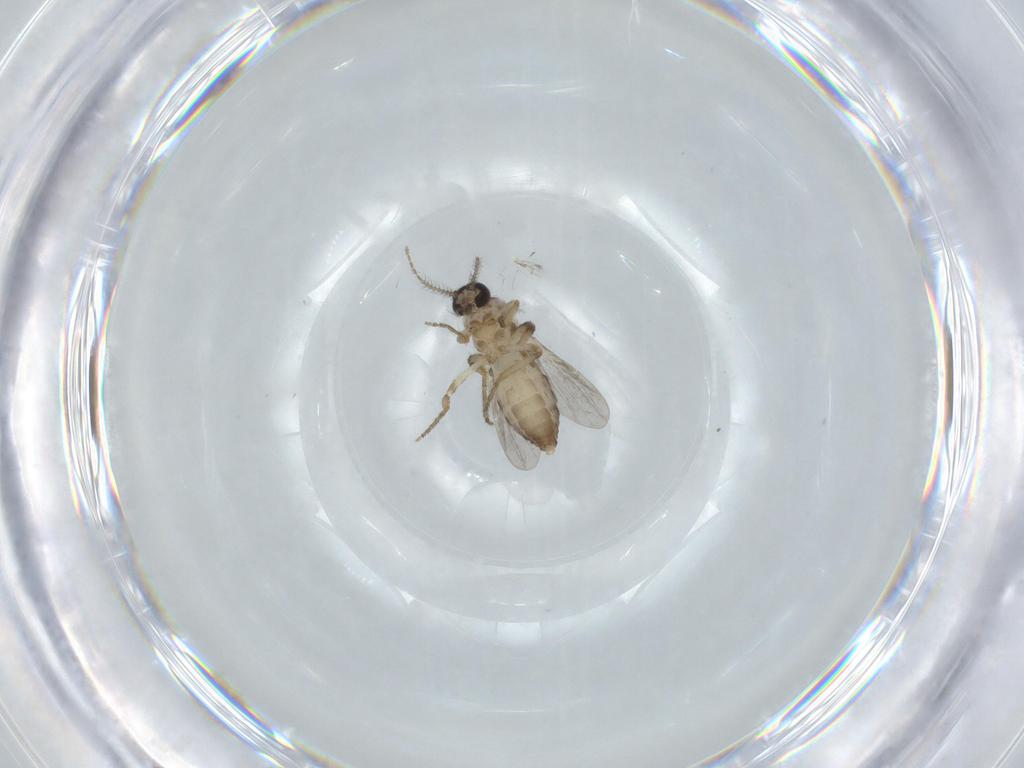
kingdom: Animalia
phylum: Arthropoda
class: Insecta
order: Diptera
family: Ceratopogonidae
